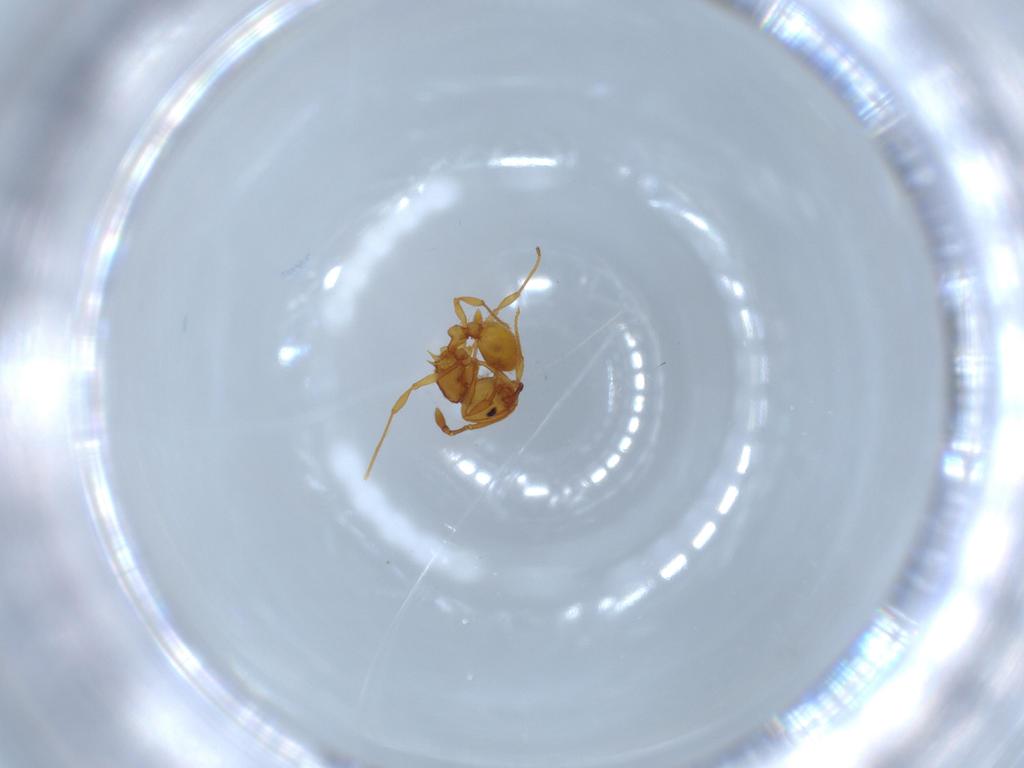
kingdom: Animalia
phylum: Arthropoda
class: Insecta
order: Hymenoptera
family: Formicidae
